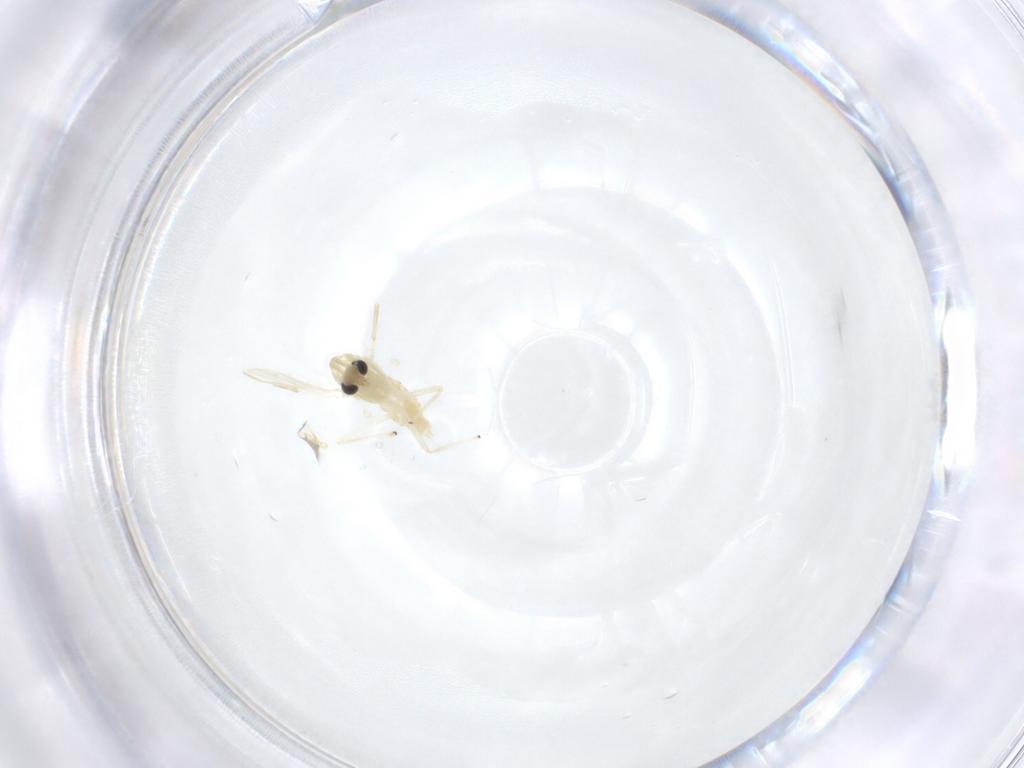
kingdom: Animalia
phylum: Arthropoda
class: Insecta
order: Diptera
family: Chironomidae
